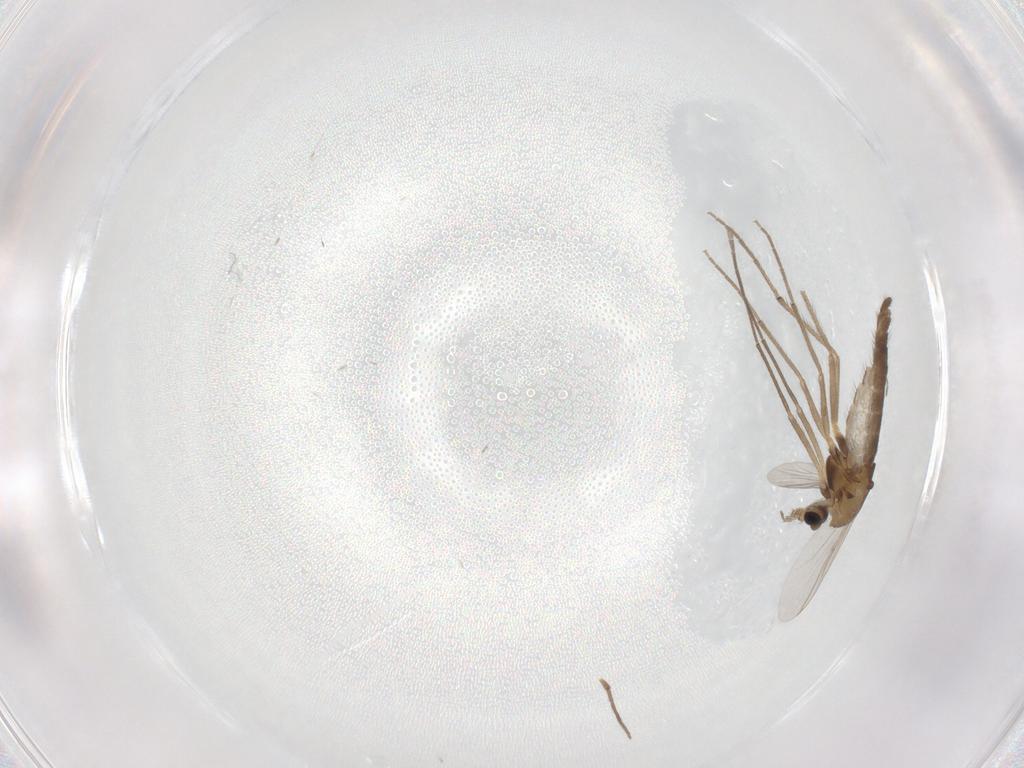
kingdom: Animalia
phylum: Arthropoda
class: Insecta
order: Diptera
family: Chironomidae
